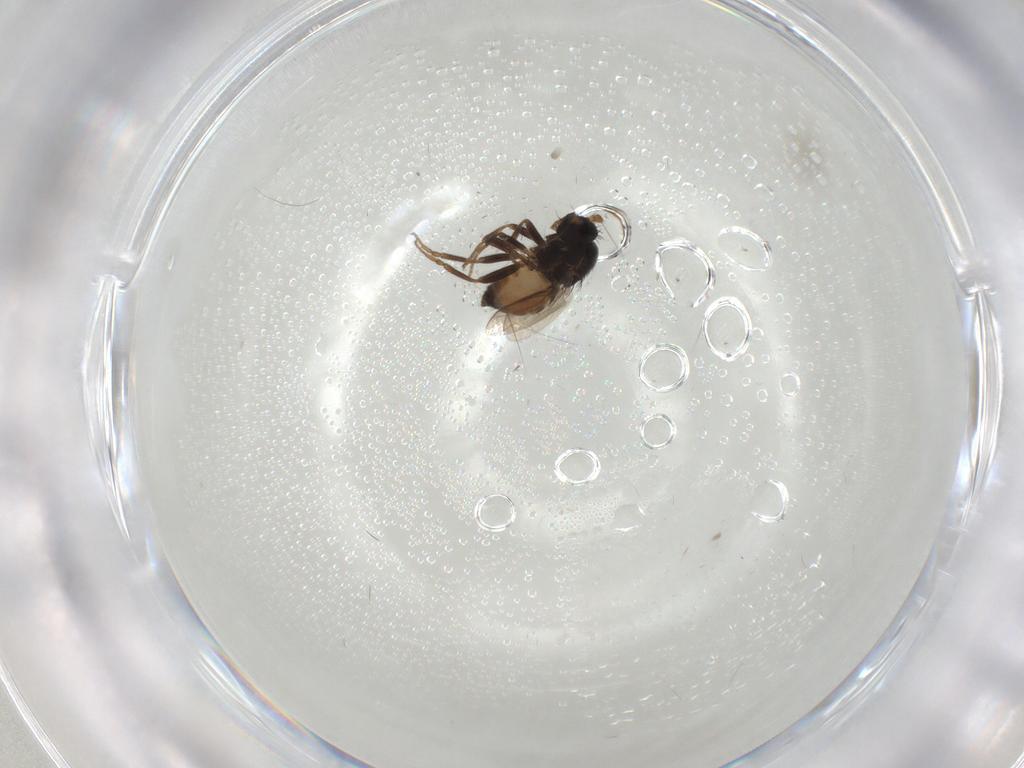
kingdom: Animalia
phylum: Arthropoda
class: Insecta
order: Diptera
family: Sphaeroceridae
